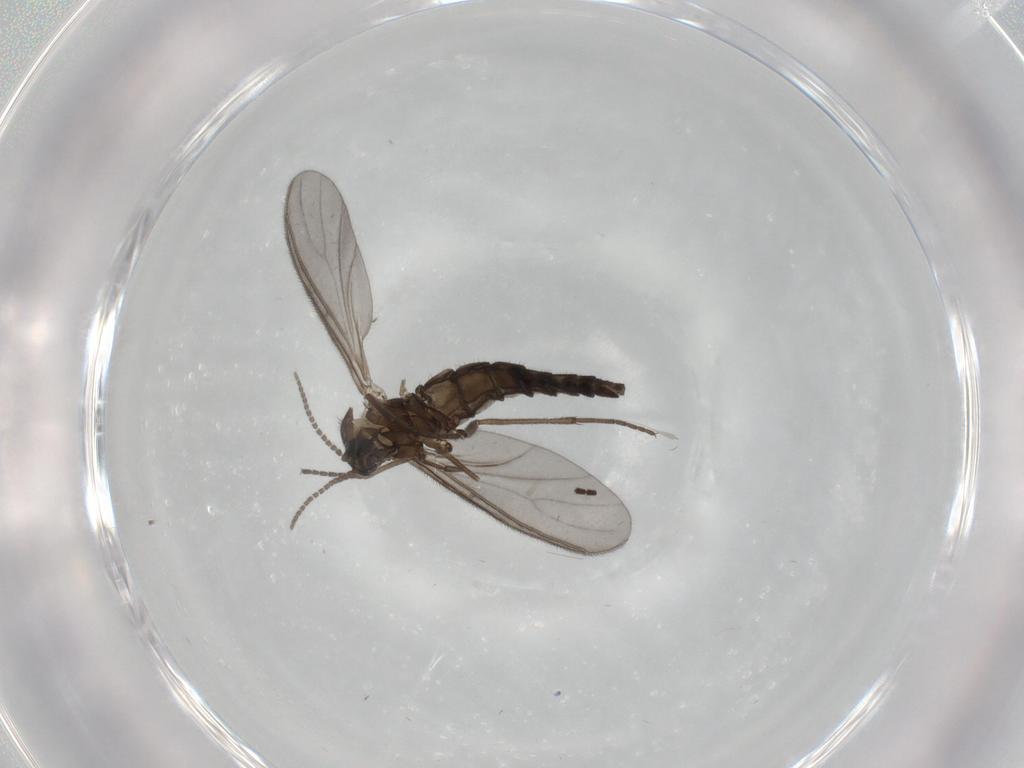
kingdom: Animalia
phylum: Arthropoda
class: Insecta
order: Diptera
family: Sciaridae
